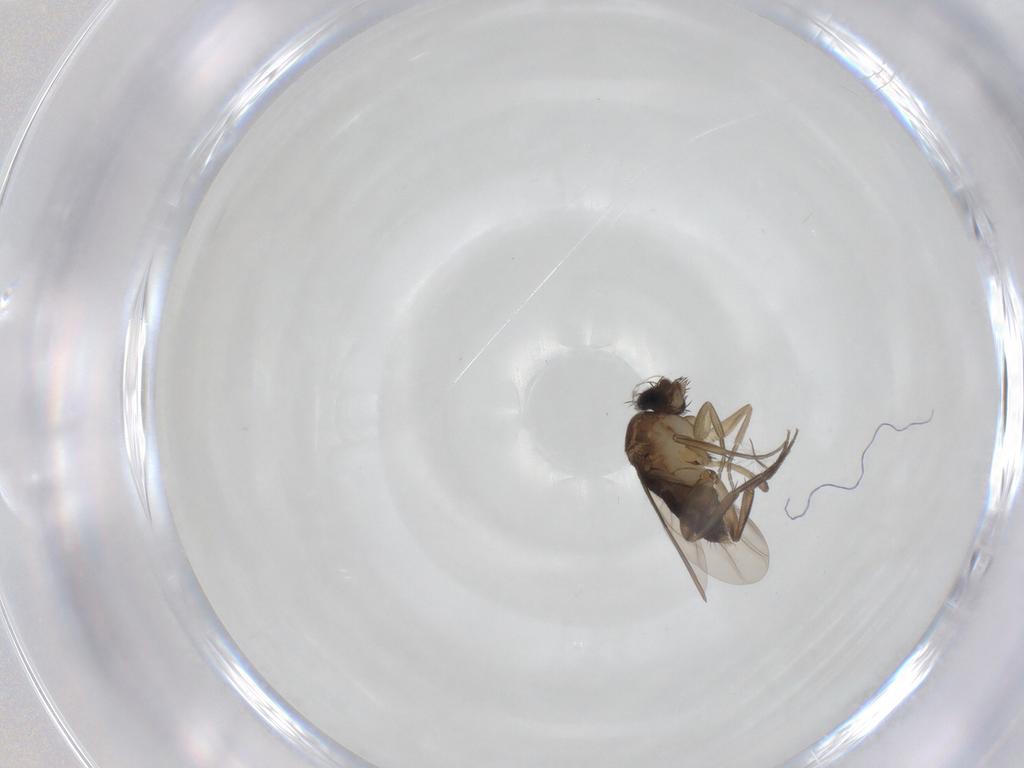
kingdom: Animalia
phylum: Arthropoda
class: Insecta
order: Diptera
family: Phoridae
